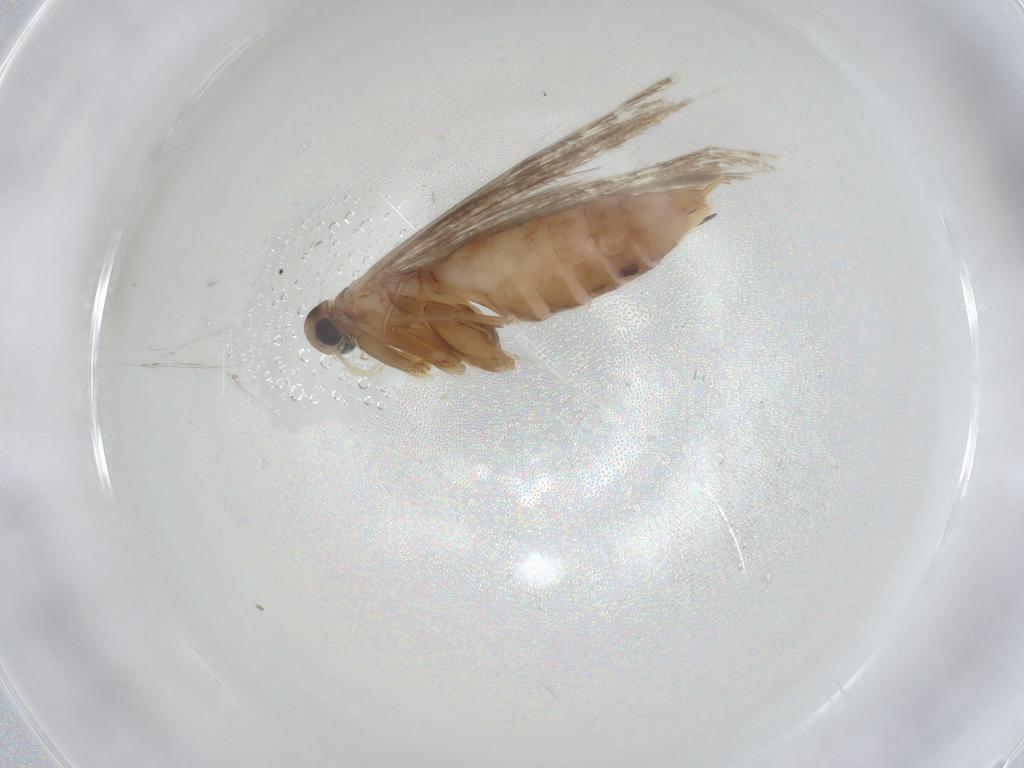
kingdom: Animalia
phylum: Arthropoda
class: Insecta
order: Lepidoptera
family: Coleophoridae
